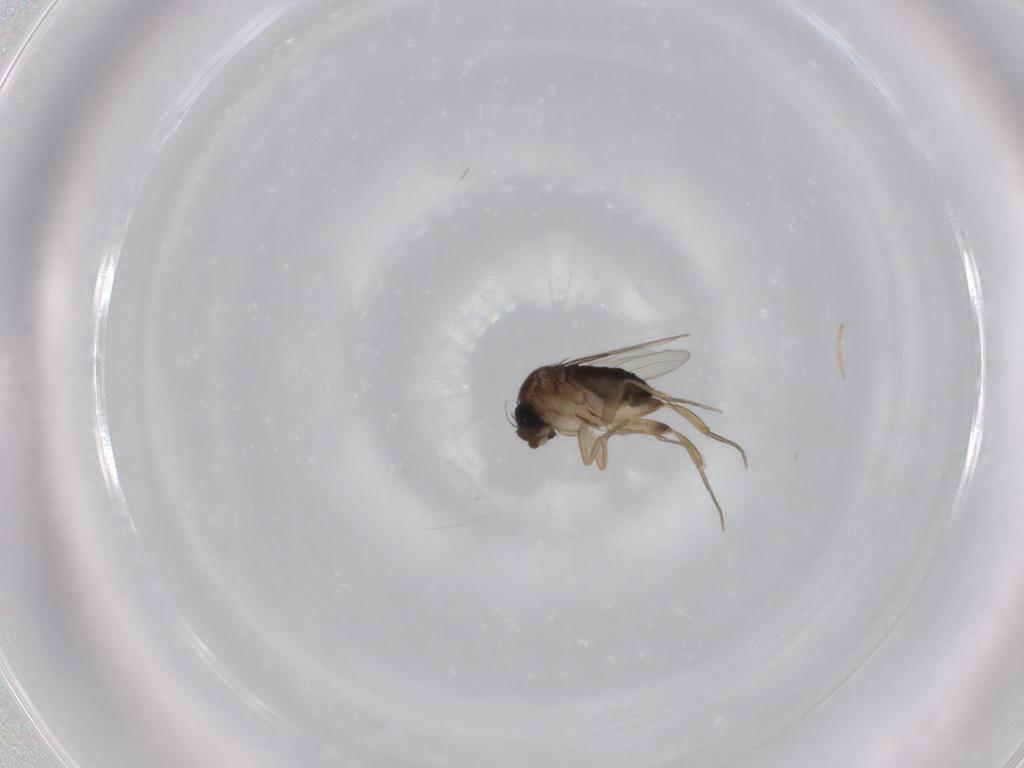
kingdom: Animalia
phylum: Arthropoda
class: Insecta
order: Diptera
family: Phoridae
